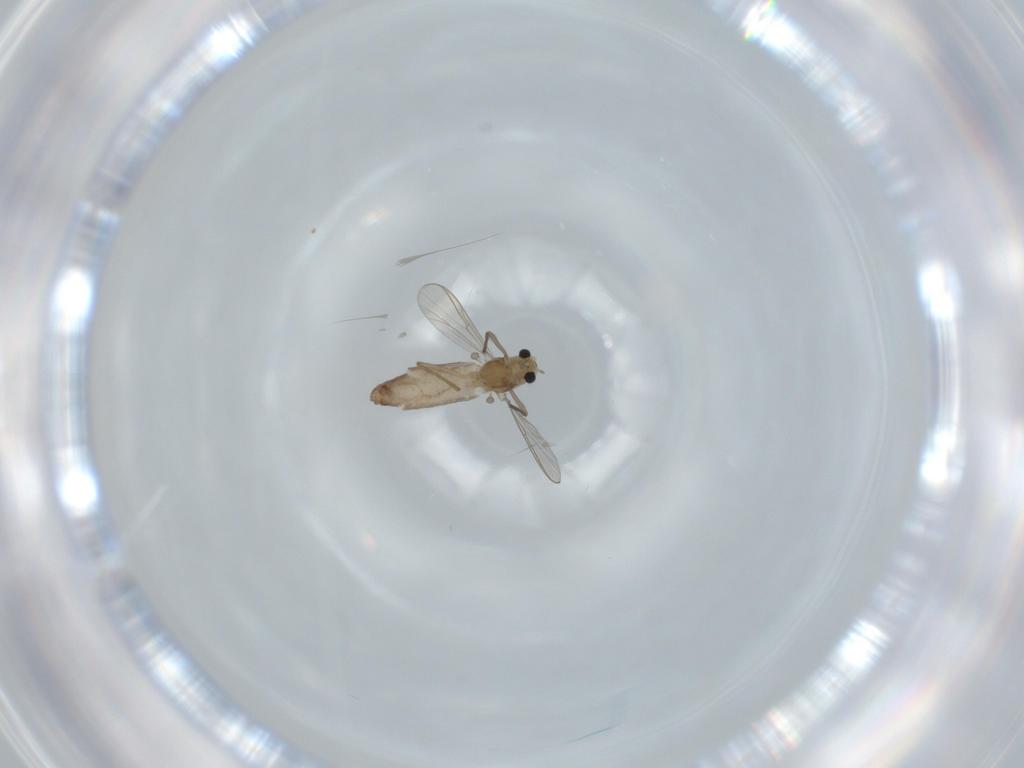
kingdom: Animalia
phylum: Arthropoda
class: Insecta
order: Diptera
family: Chironomidae
